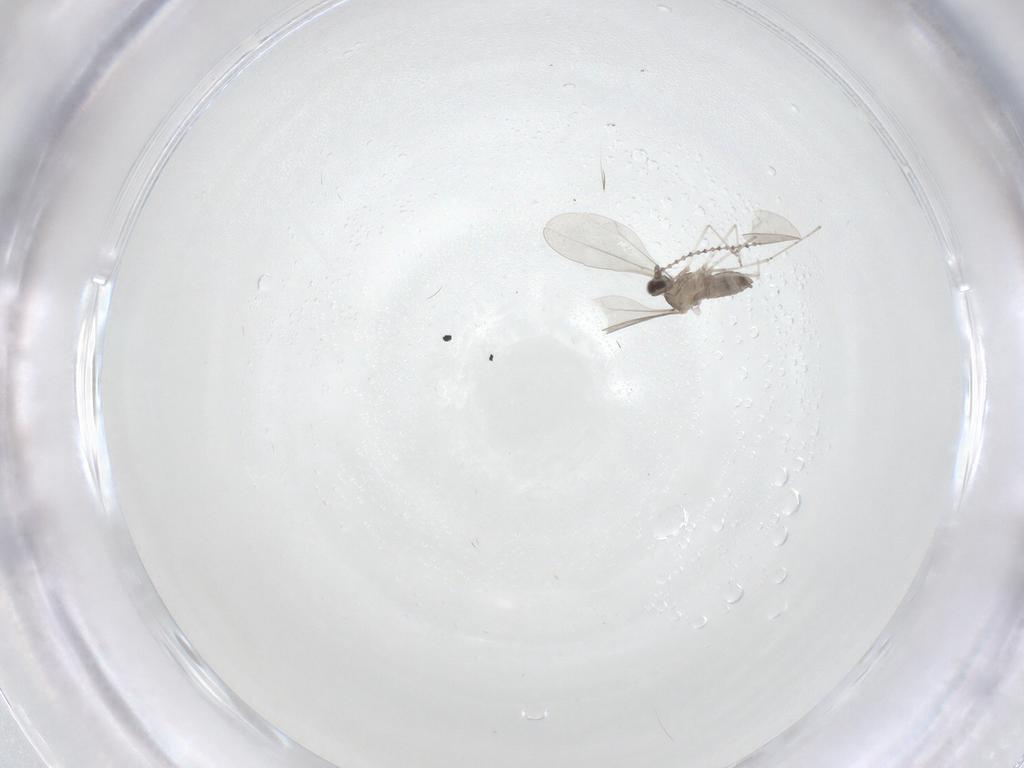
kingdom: Animalia
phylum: Arthropoda
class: Insecta
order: Diptera
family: Cecidomyiidae
